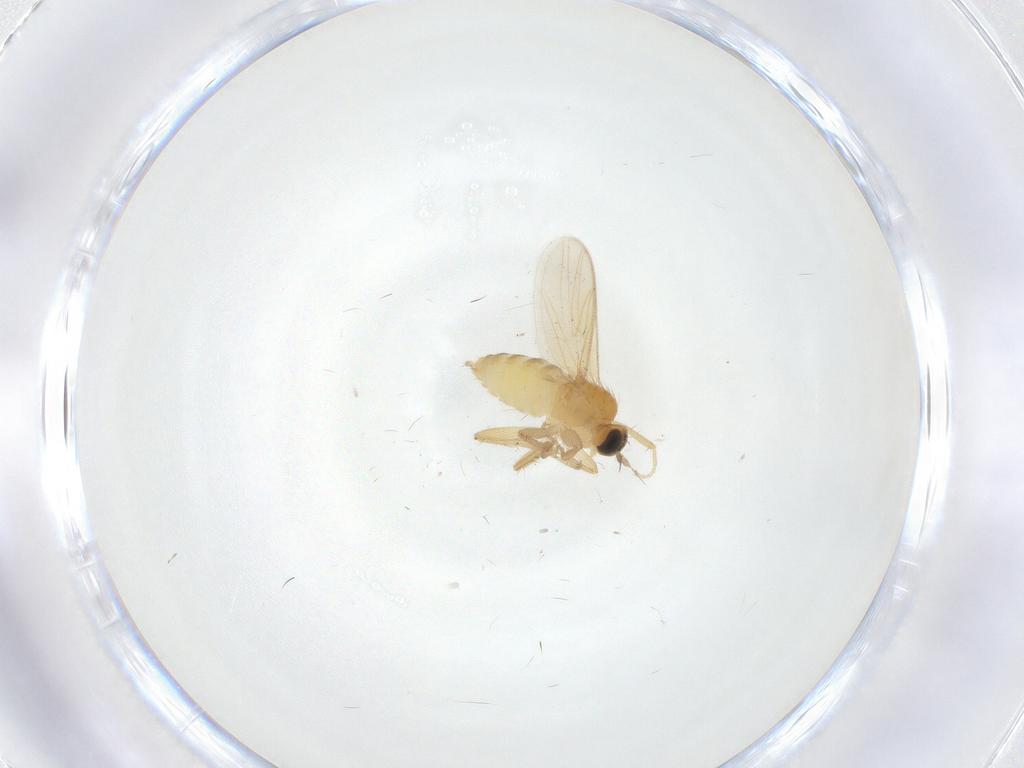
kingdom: Animalia
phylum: Arthropoda
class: Insecta
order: Diptera
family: Hybotidae
